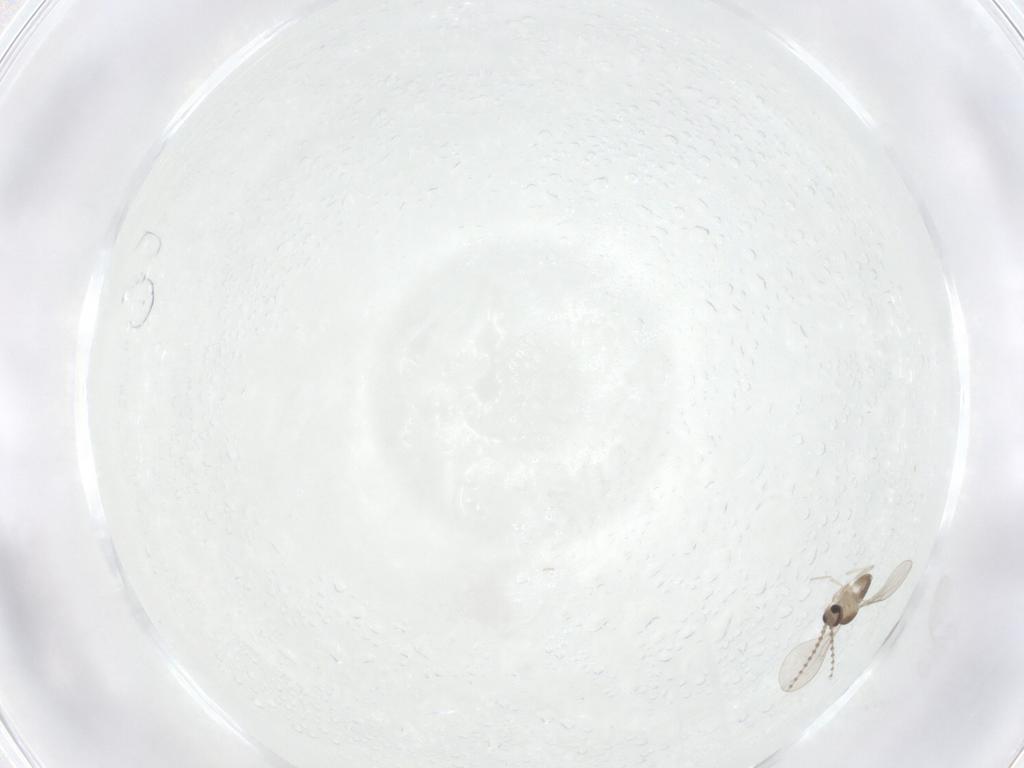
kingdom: Animalia
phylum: Arthropoda
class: Insecta
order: Diptera
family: Cecidomyiidae
